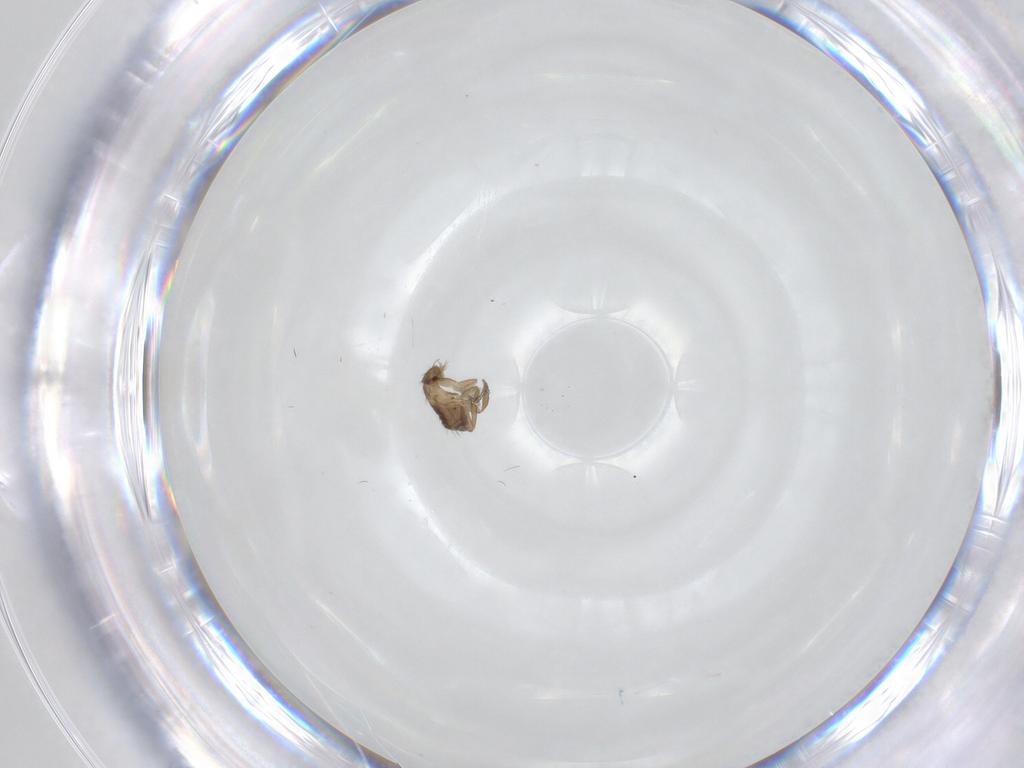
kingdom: Animalia
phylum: Arthropoda
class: Insecta
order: Diptera
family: Phoridae
